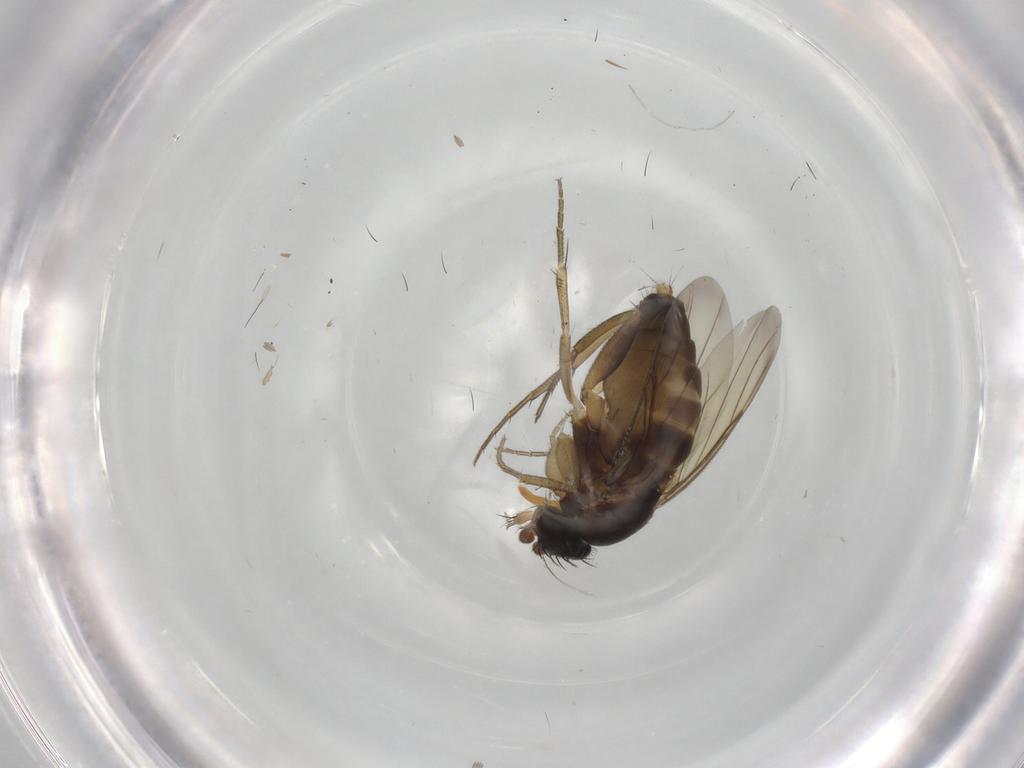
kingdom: Animalia
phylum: Arthropoda
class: Insecta
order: Diptera
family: Phoridae
